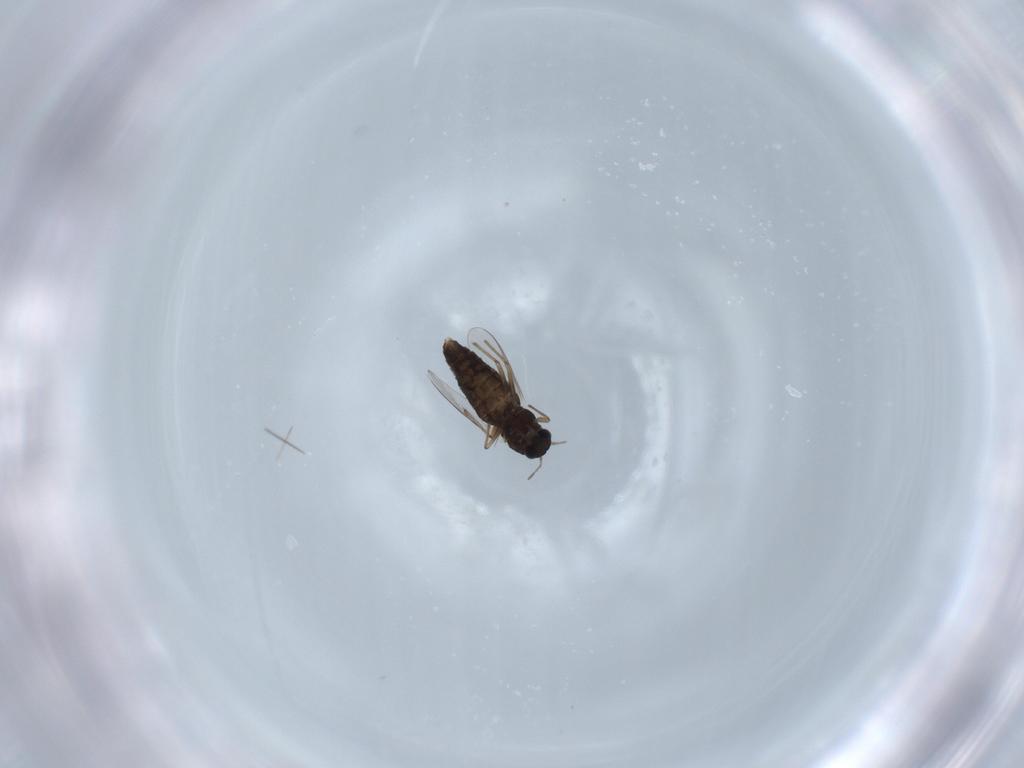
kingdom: Animalia
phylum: Arthropoda
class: Insecta
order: Diptera
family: Chironomidae
